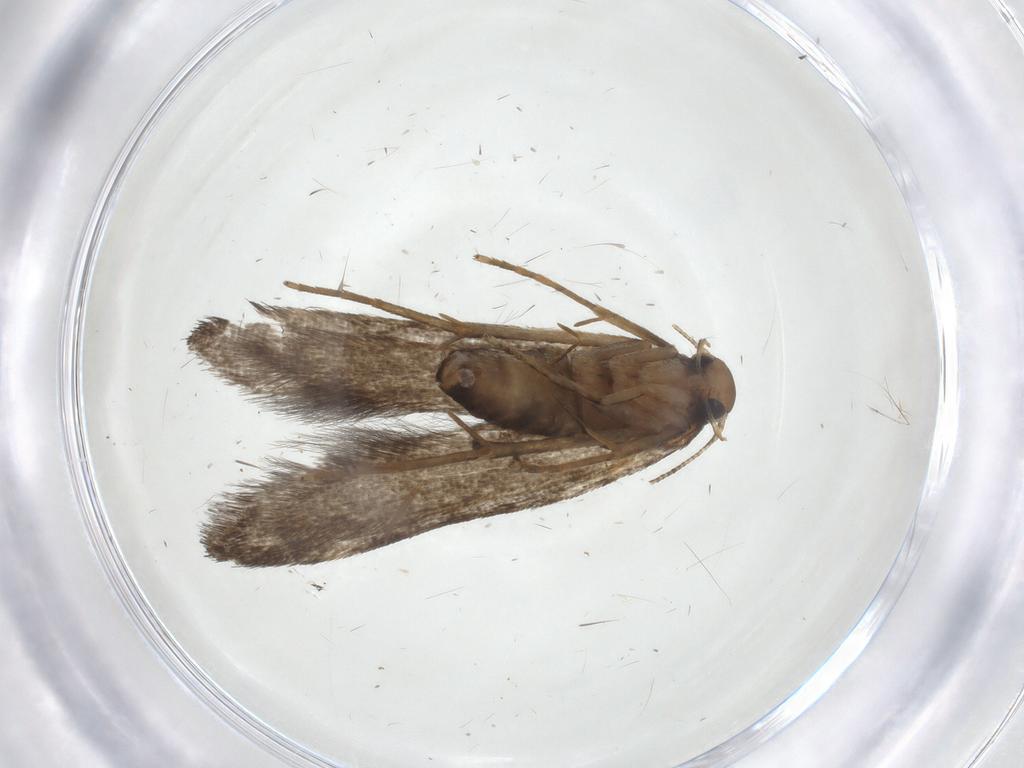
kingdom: Animalia
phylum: Arthropoda
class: Insecta
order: Lepidoptera
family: Noctuidae
